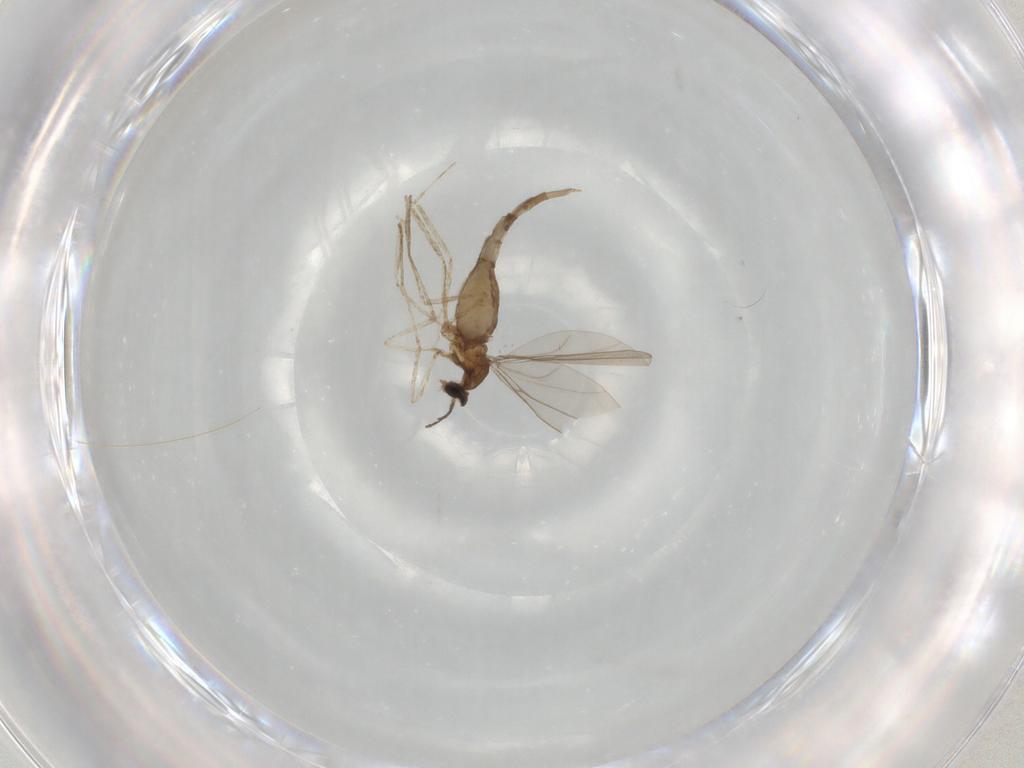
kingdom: Animalia
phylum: Arthropoda
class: Insecta
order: Diptera
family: Cecidomyiidae
